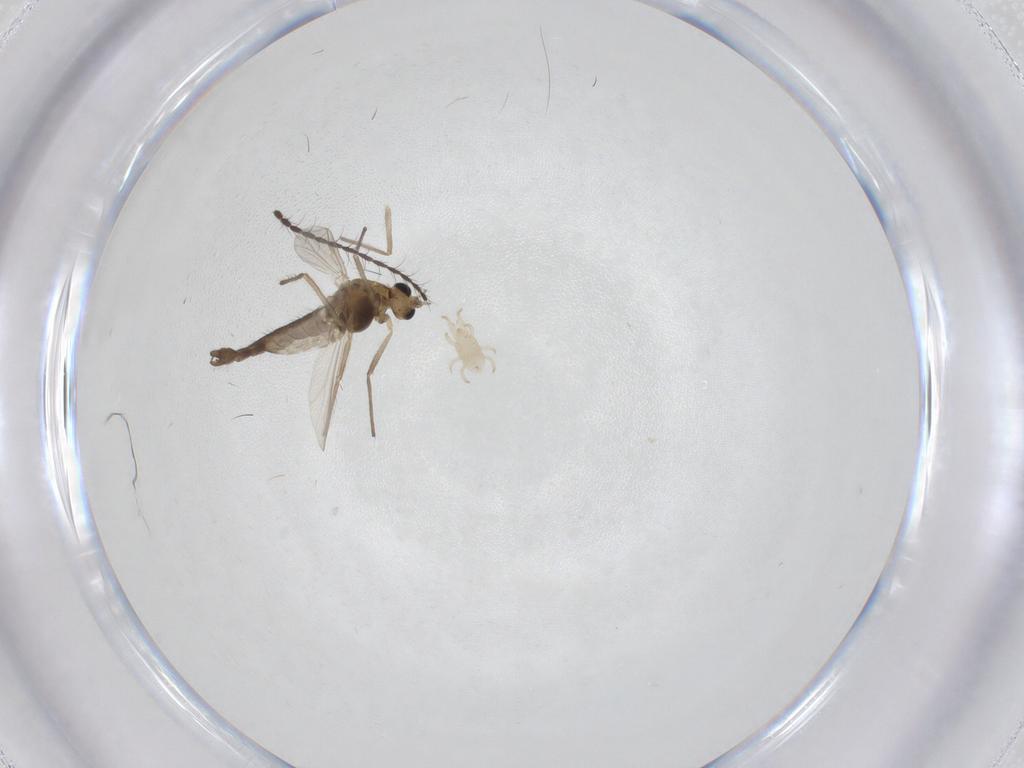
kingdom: Animalia
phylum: Arthropoda
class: Insecta
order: Diptera
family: Chironomidae
